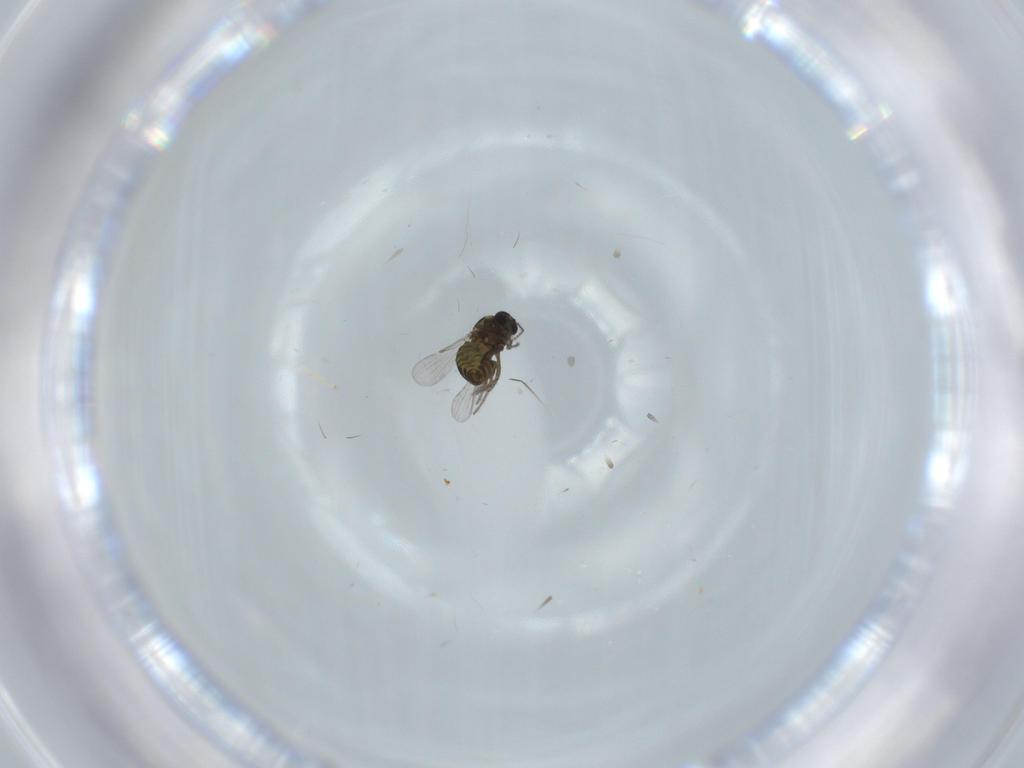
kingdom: Animalia
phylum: Arthropoda
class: Insecta
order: Diptera
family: Ceratopogonidae
